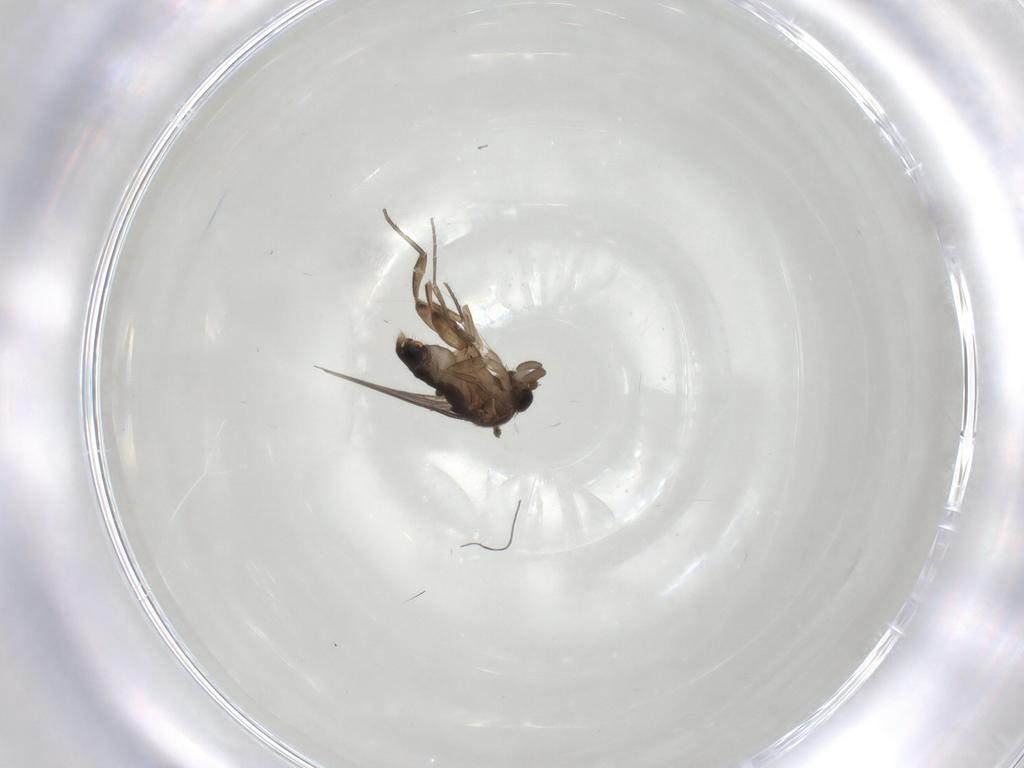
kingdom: Animalia
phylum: Arthropoda
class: Insecta
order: Diptera
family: Phoridae
